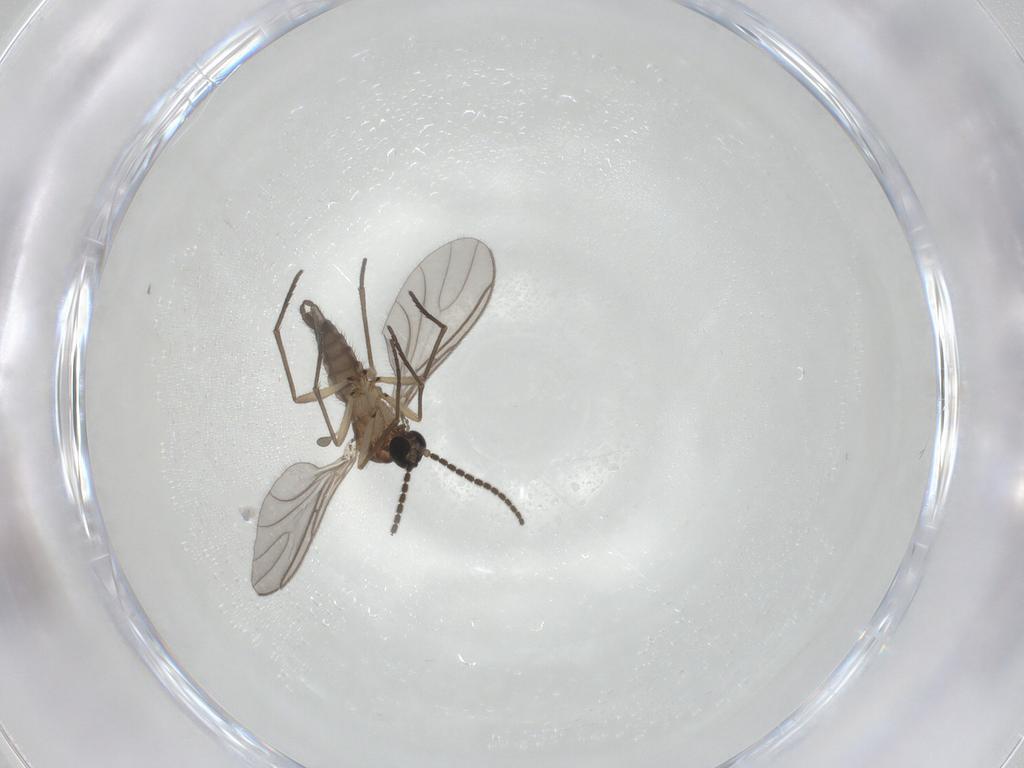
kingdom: Animalia
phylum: Arthropoda
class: Insecta
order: Diptera
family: Sciaridae
